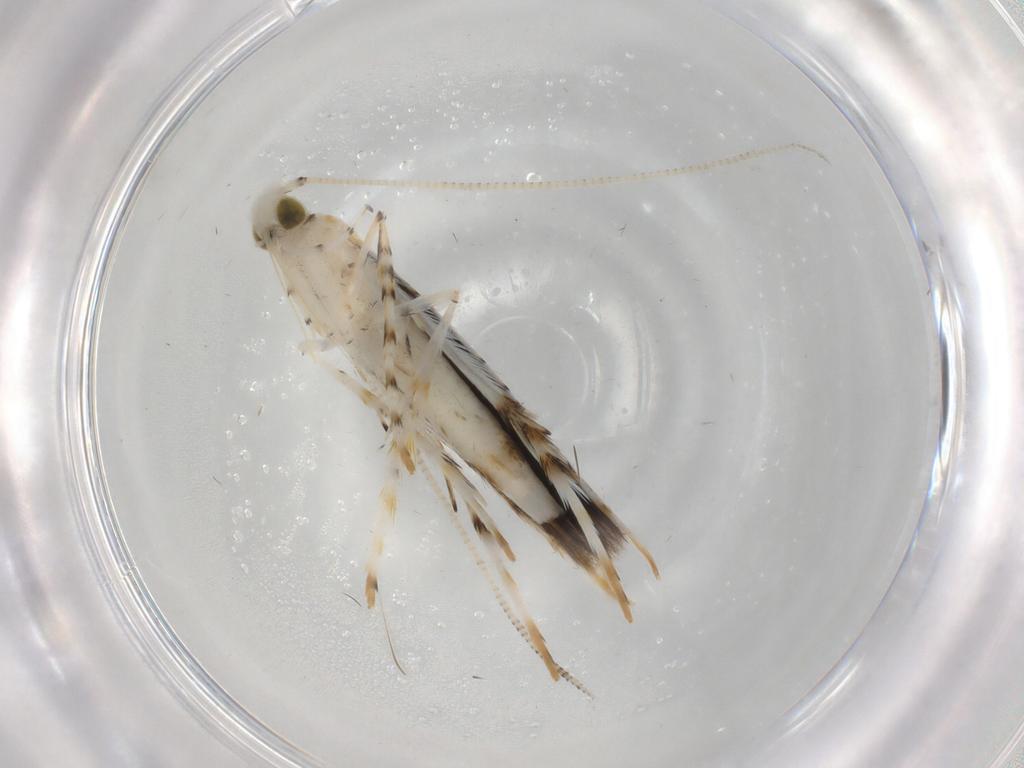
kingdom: Animalia
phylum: Arthropoda
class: Insecta
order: Lepidoptera
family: Gracillariidae
